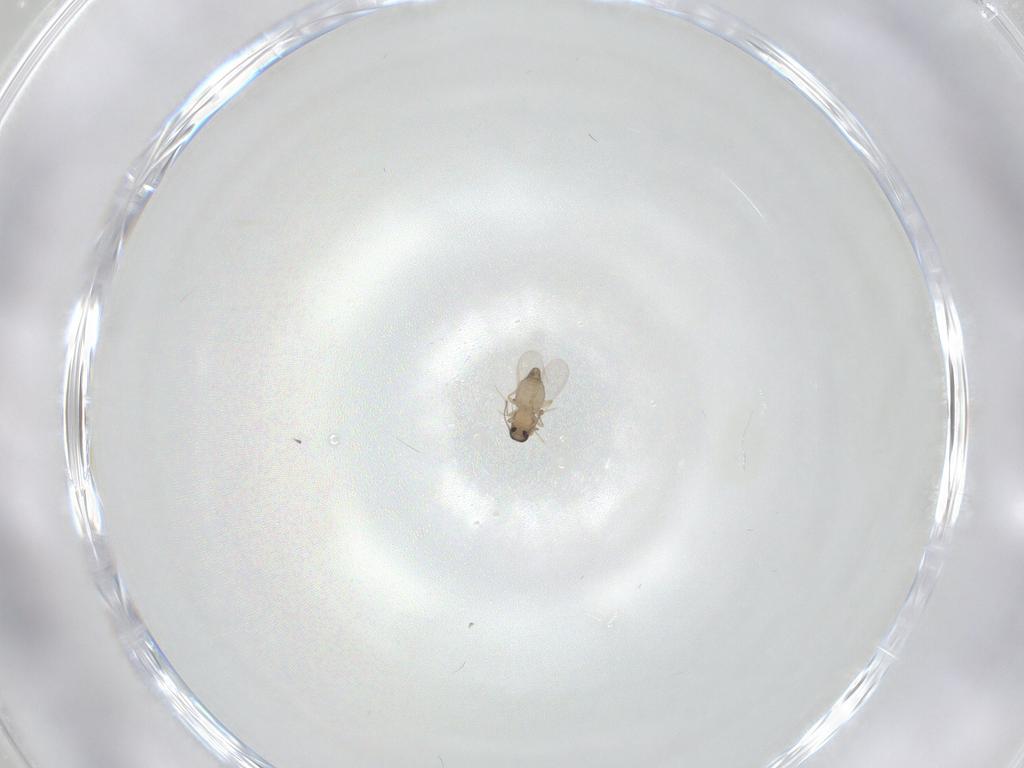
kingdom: Animalia
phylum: Arthropoda
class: Insecta
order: Diptera
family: Ceratopogonidae
